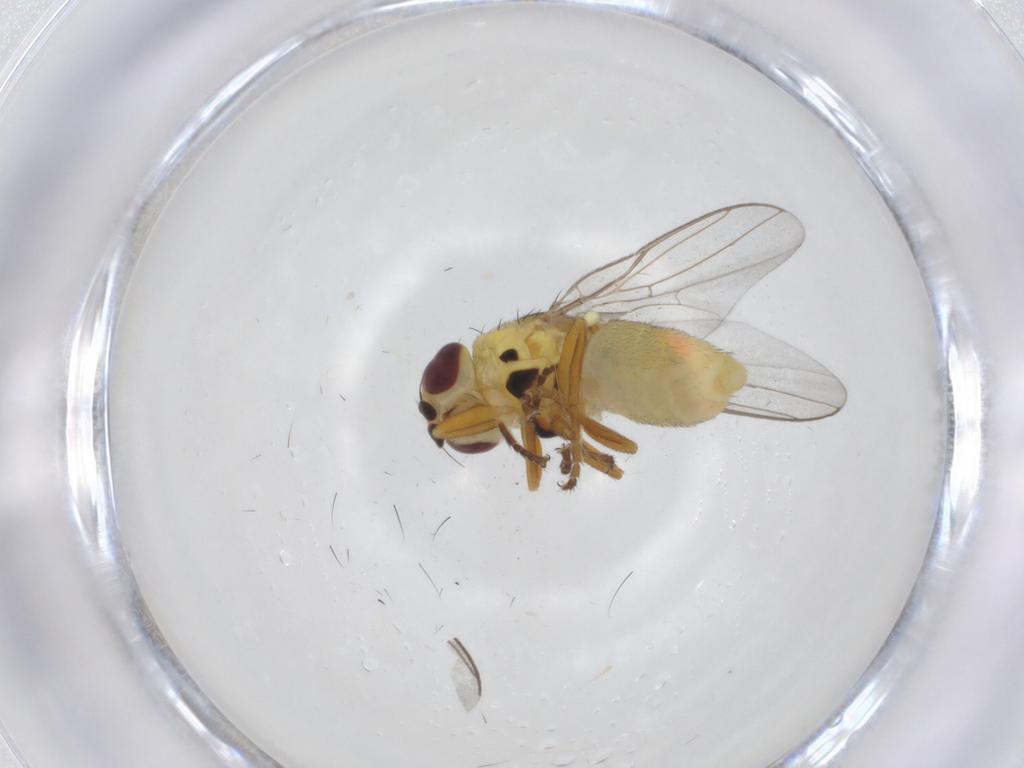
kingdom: Animalia
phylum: Arthropoda
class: Insecta
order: Diptera
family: Chloropidae
